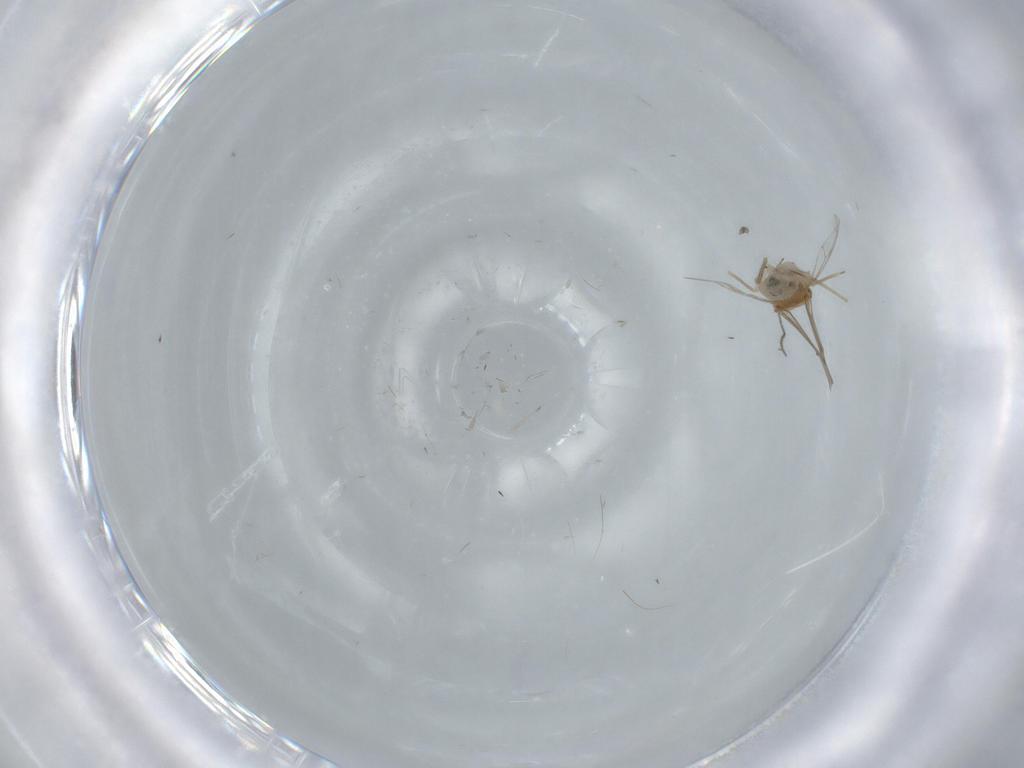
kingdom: Animalia
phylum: Arthropoda
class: Insecta
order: Psocodea
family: Ectopsocidae
